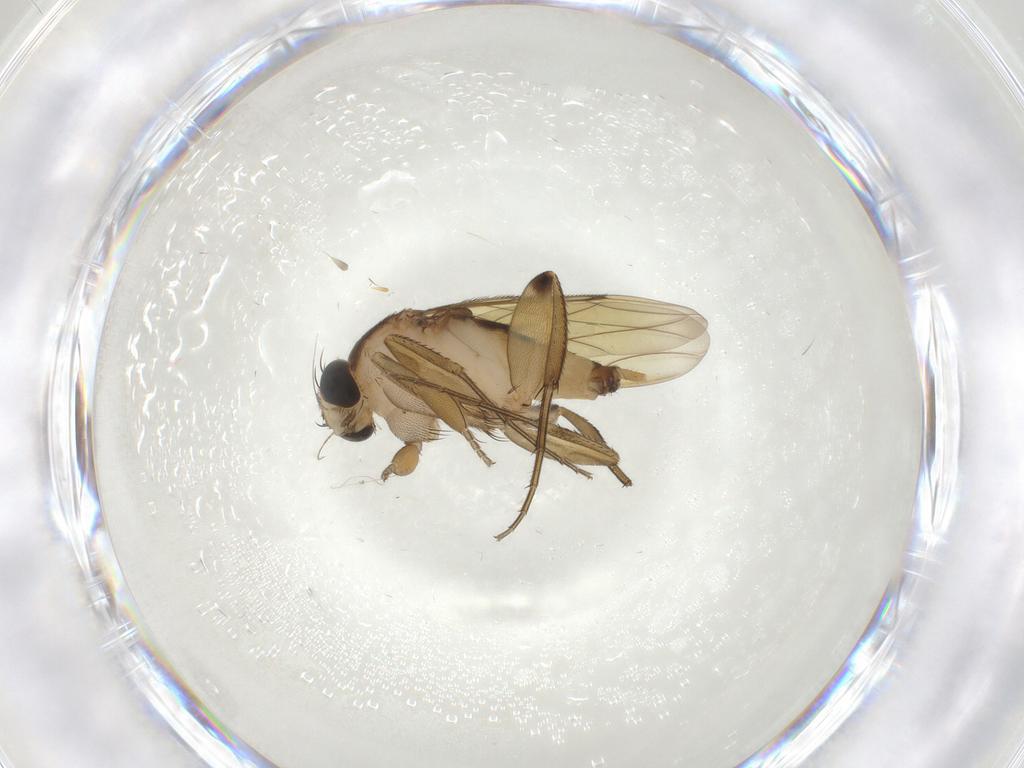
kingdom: Animalia
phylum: Arthropoda
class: Insecta
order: Diptera
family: Phoridae
